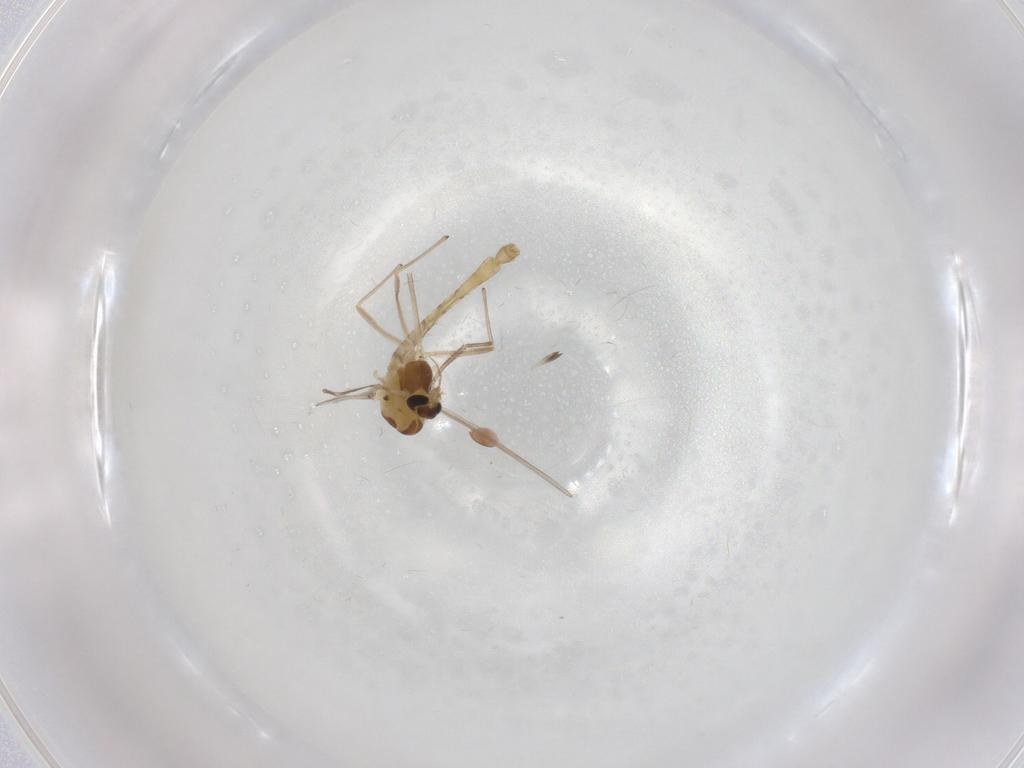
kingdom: Animalia
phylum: Arthropoda
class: Insecta
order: Diptera
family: Chironomidae
